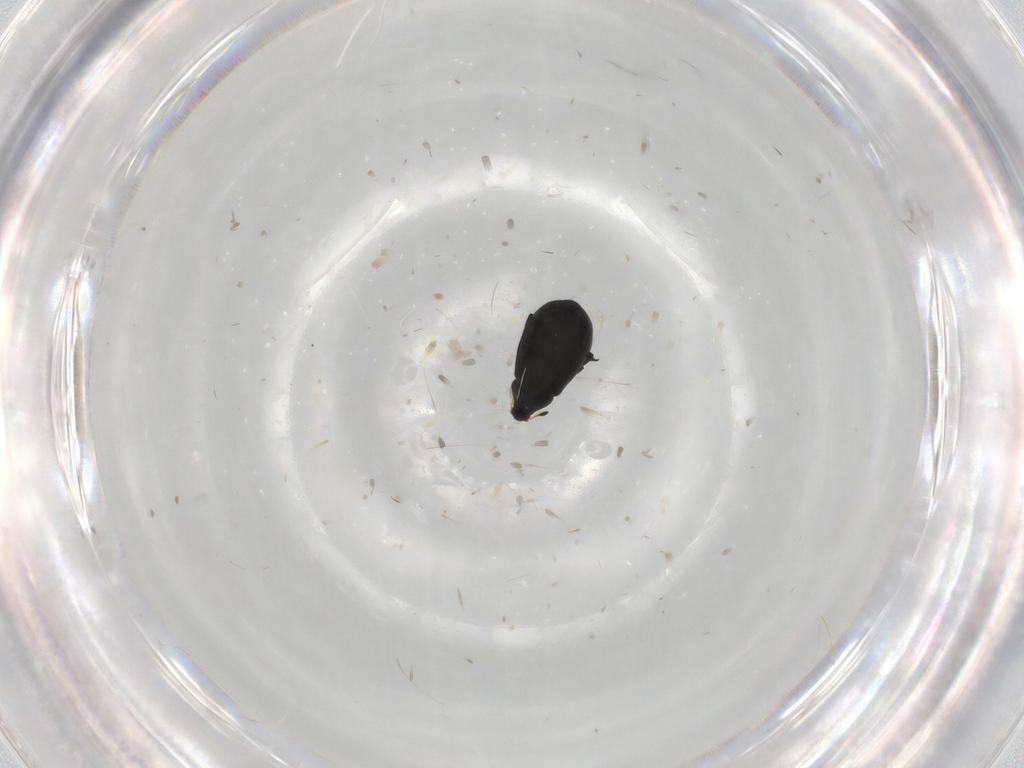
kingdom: Animalia
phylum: Arthropoda
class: Insecta
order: Coleoptera
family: Curculionidae
